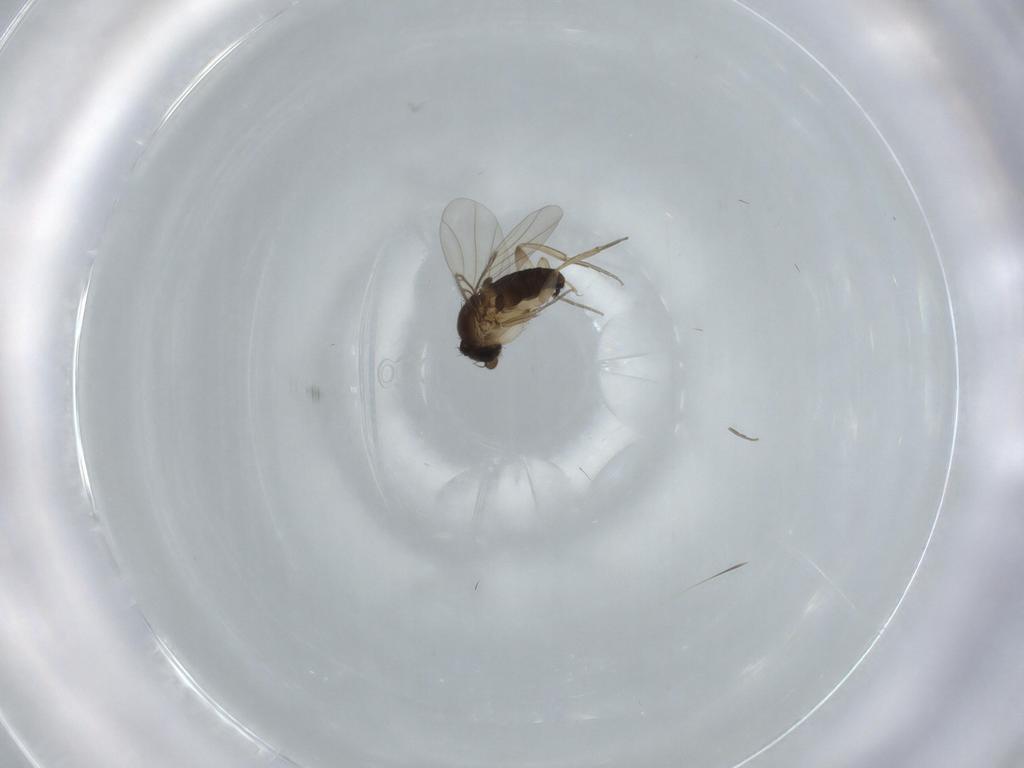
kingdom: Animalia
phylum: Arthropoda
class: Insecta
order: Diptera
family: Phoridae
